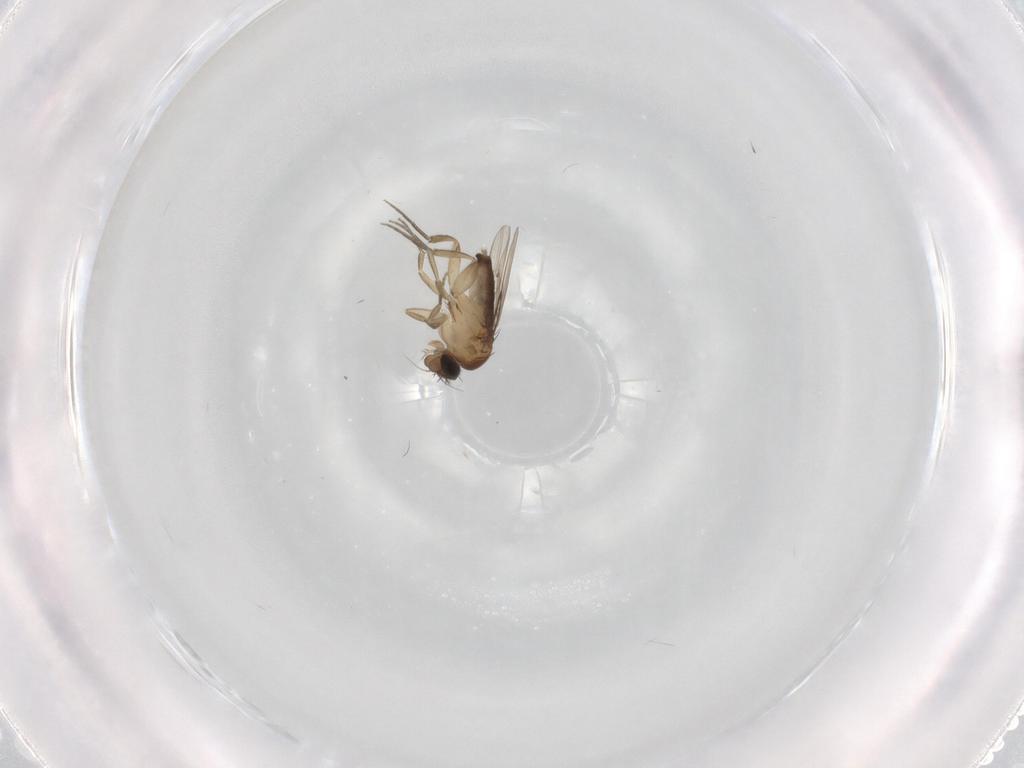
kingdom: Animalia
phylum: Arthropoda
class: Insecta
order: Diptera
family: Phoridae
